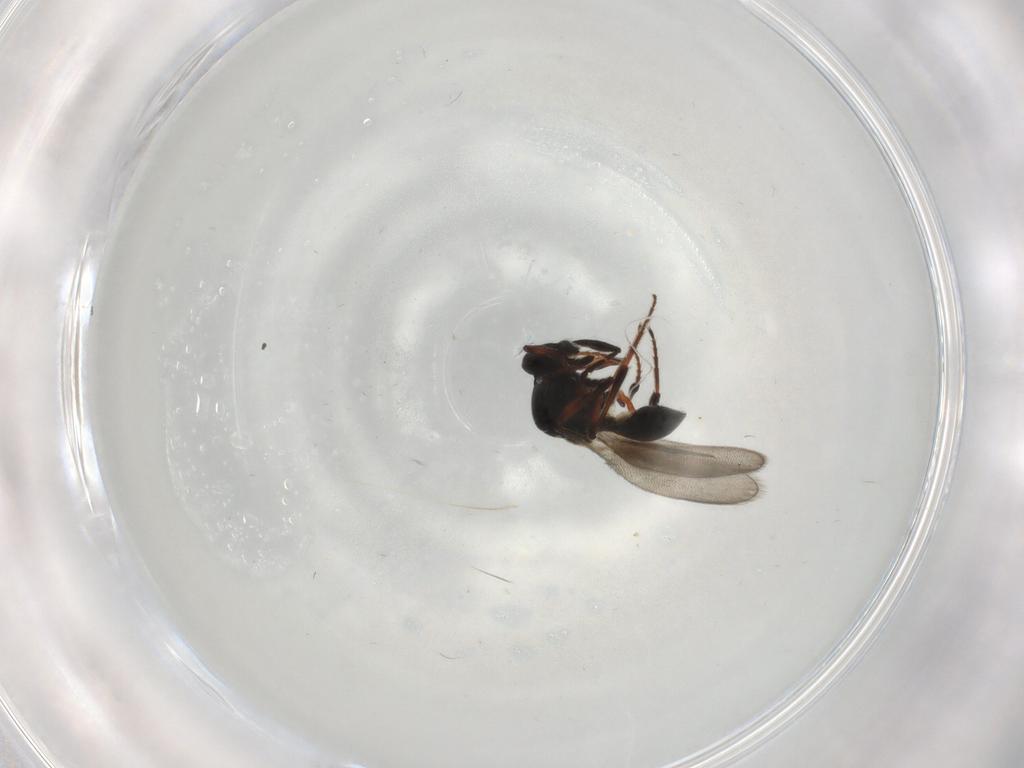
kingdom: Animalia
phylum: Arthropoda
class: Insecta
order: Hymenoptera
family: Platygastridae
